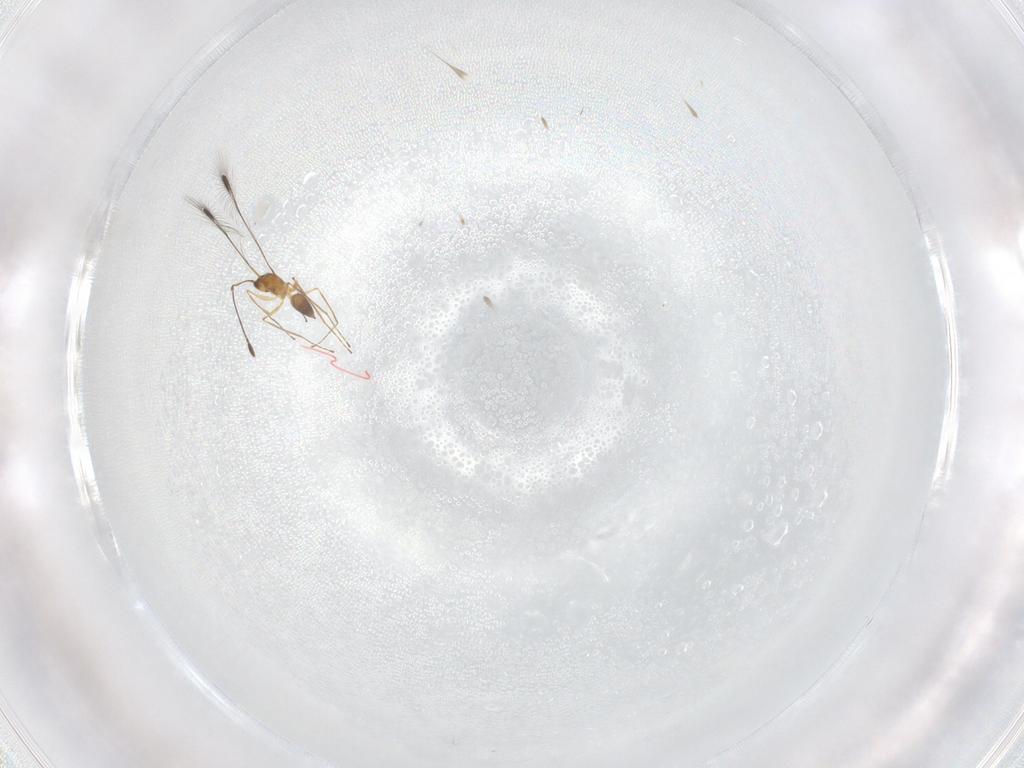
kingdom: Animalia
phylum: Arthropoda
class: Insecta
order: Hymenoptera
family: Mymaridae
